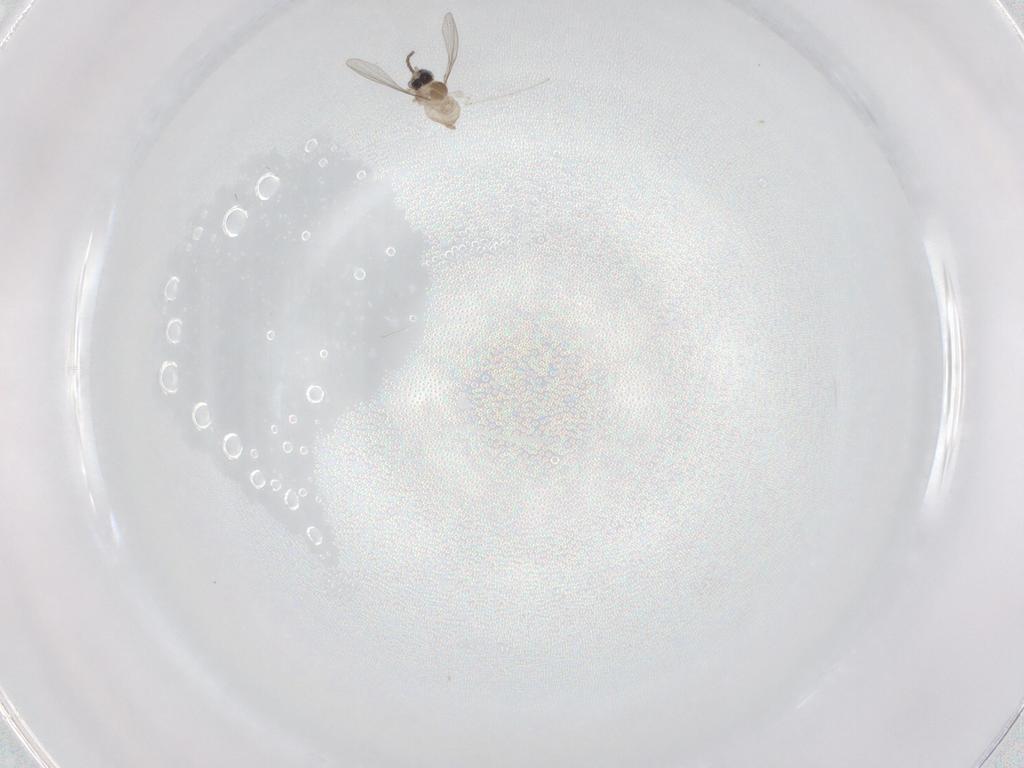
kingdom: Animalia
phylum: Arthropoda
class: Insecta
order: Diptera
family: Cecidomyiidae
